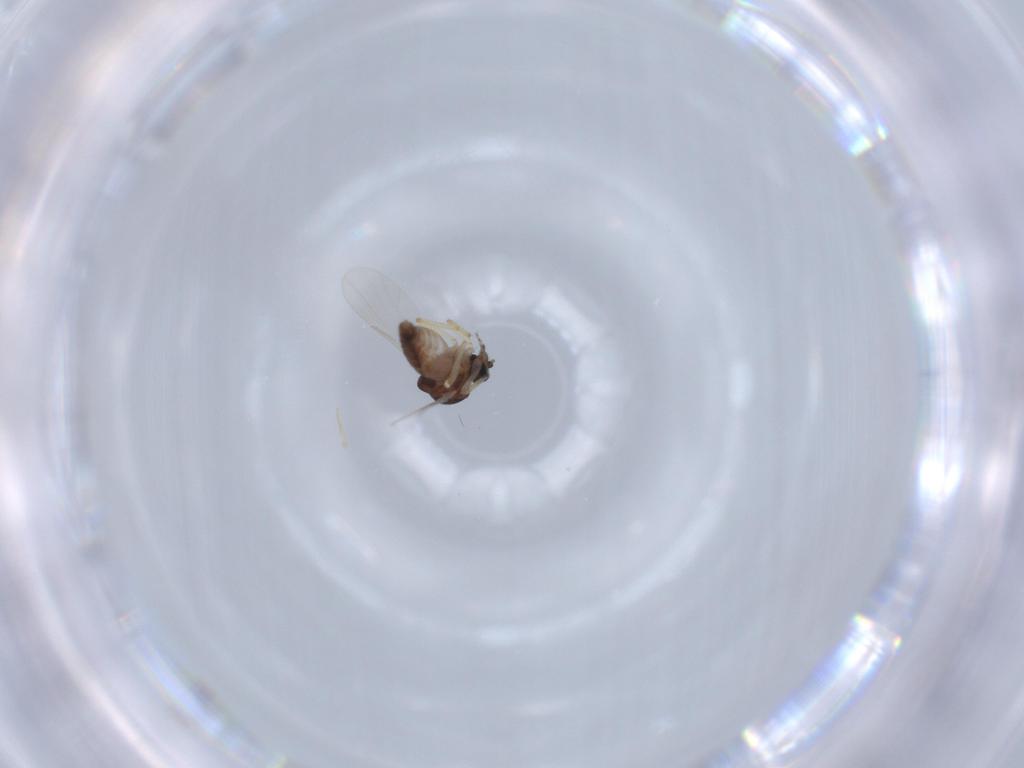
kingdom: Animalia
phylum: Arthropoda
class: Insecta
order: Diptera
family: Ceratopogonidae
